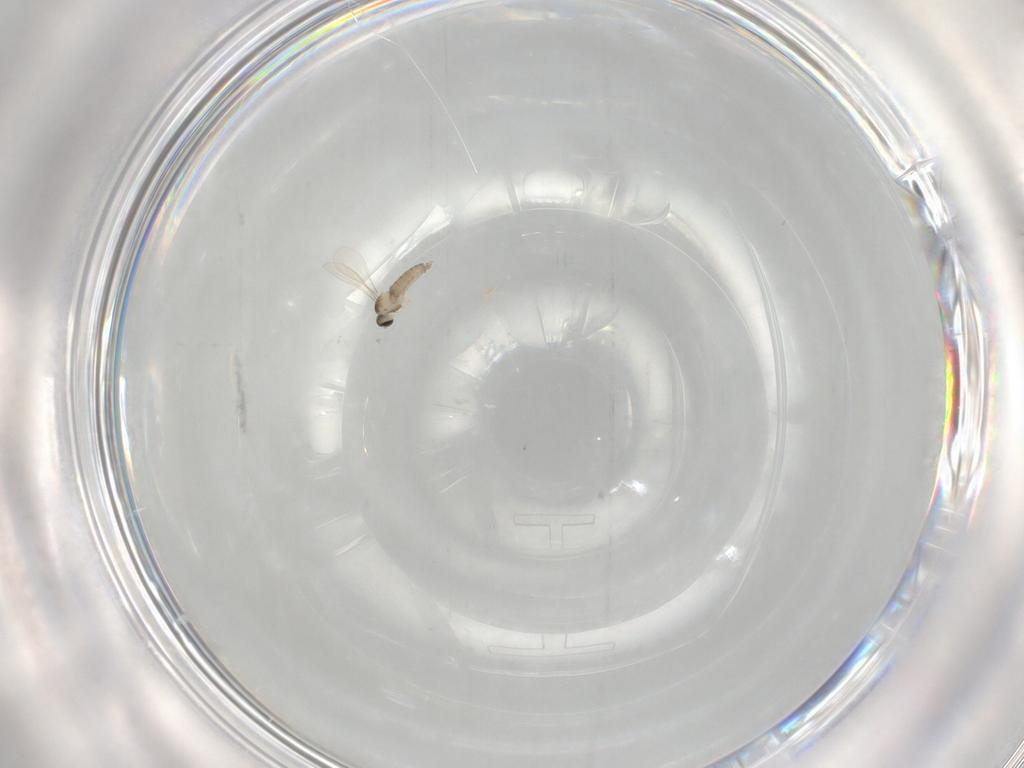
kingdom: Animalia
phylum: Arthropoda
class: Insecta
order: Diptera
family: Cecidomyiidae
